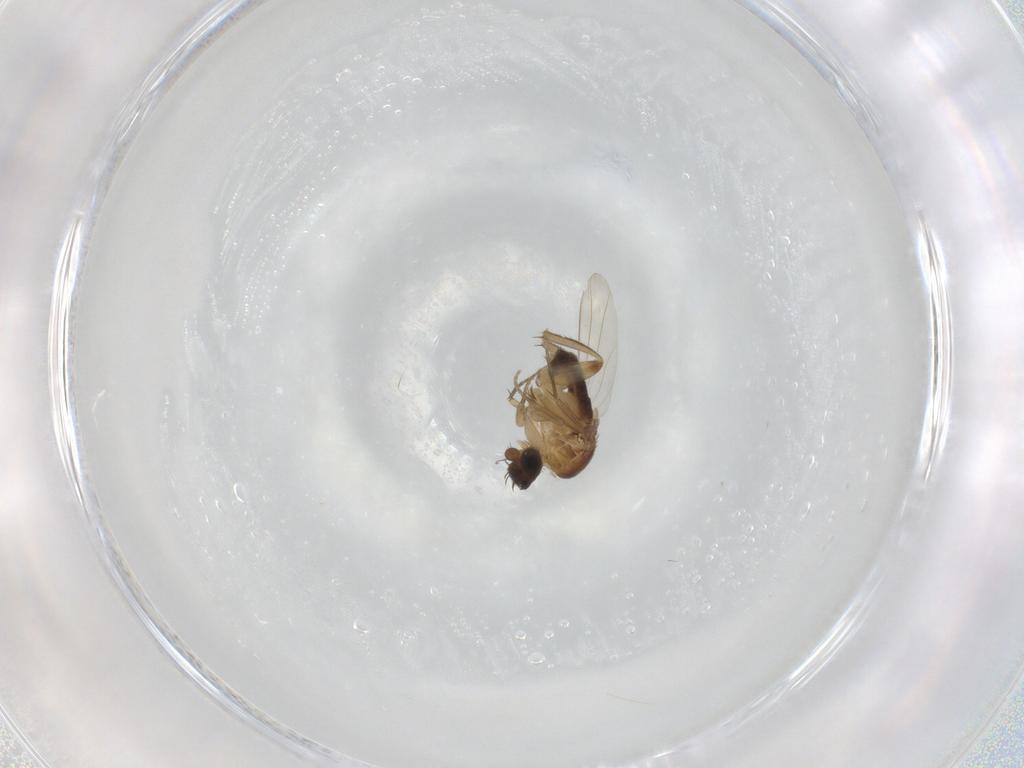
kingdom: Animalia
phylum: Arthropoda
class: Insecta
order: Diptera
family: Phoridae
